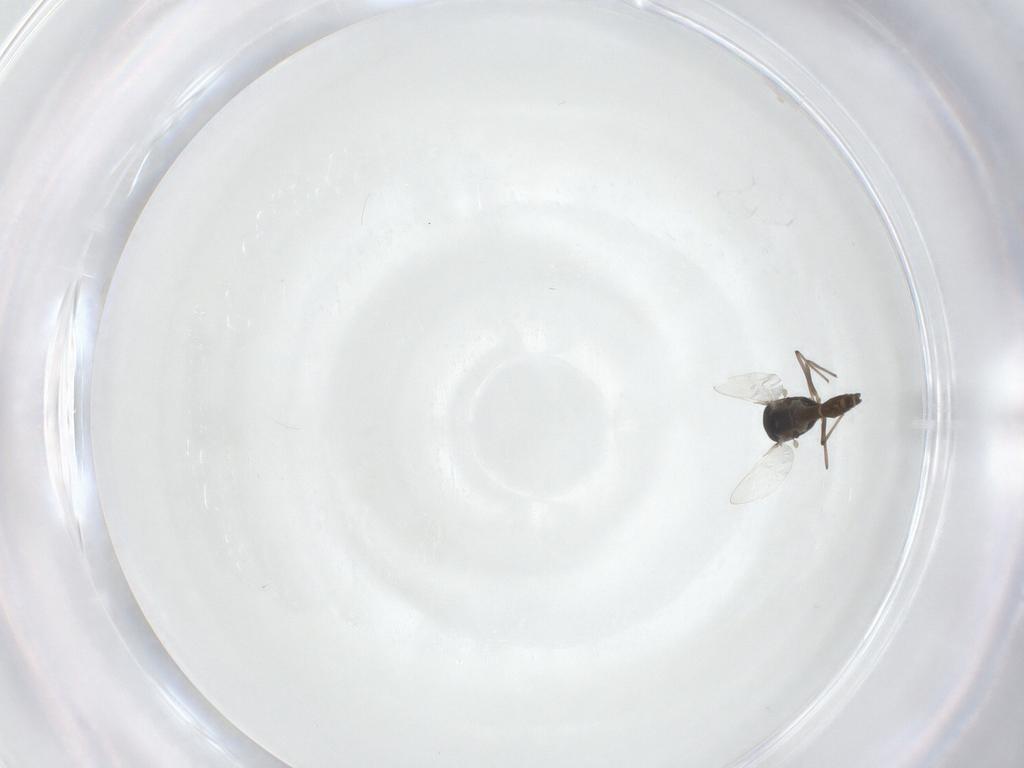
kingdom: Animalia
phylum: Arthropoda
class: Insecta
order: Diptera
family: Chironomidae
